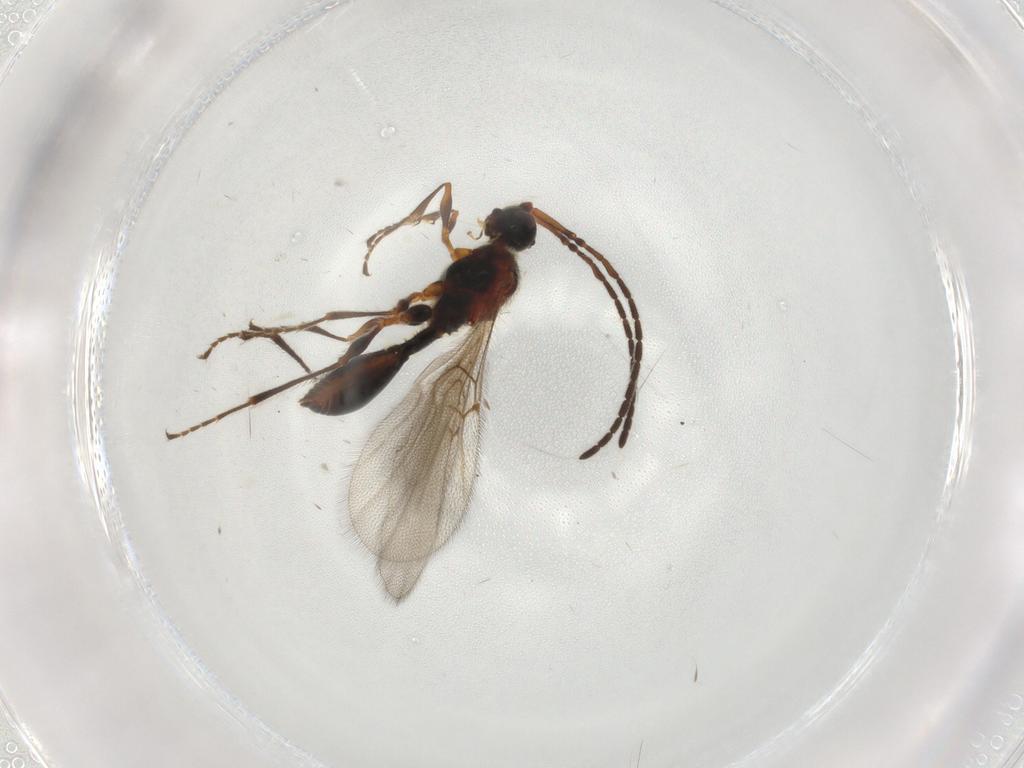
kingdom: Animalia
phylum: Arthropoda
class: Insecta
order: Hymenoptera
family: Diapriidae
